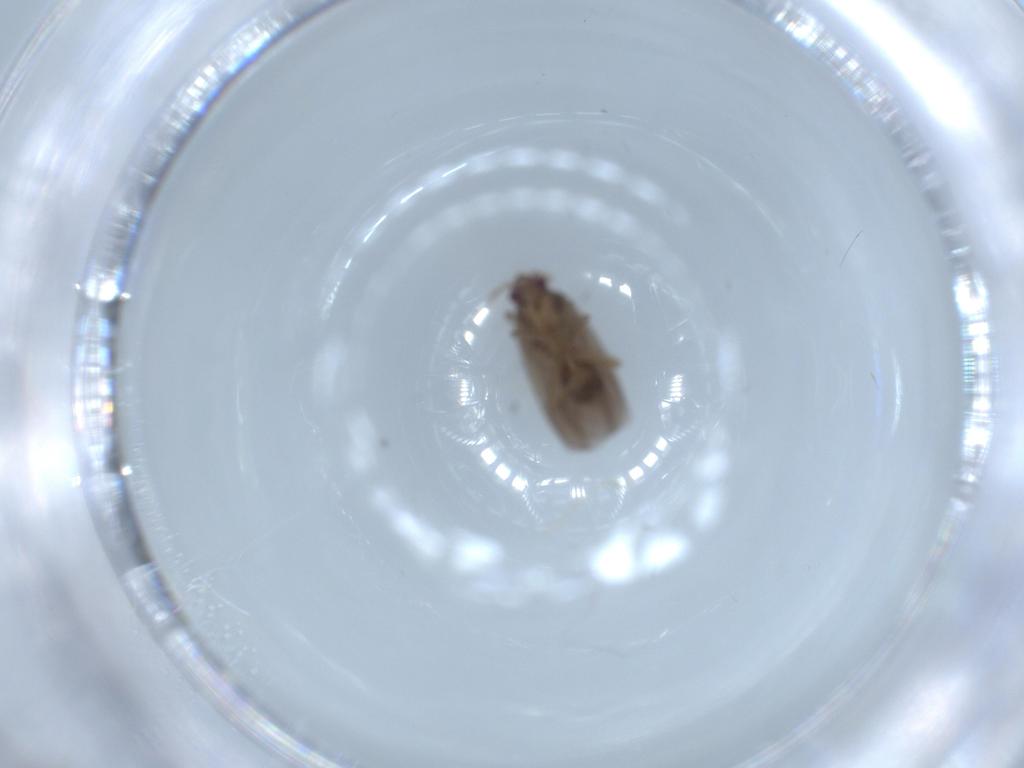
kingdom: Animalia
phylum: Arthropoda
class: Insecta
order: Hemiptera
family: Ceratocombidae
